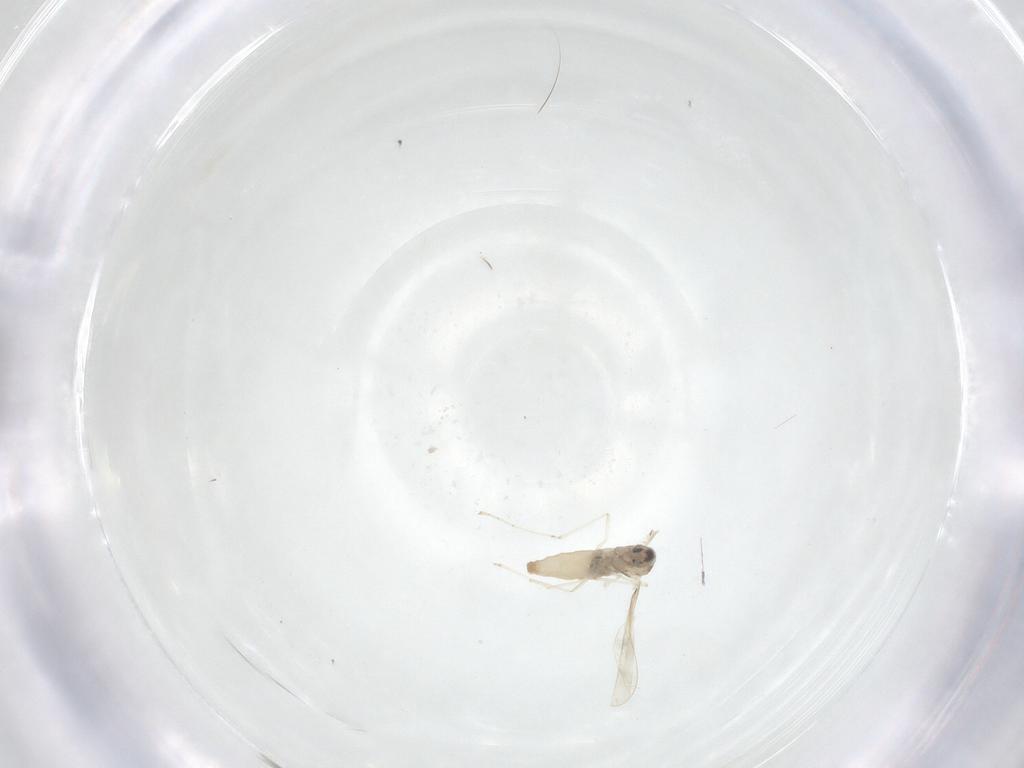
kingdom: Animalia
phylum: Arthropoda
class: Insecta
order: Diptera
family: Cecidomyiidae
